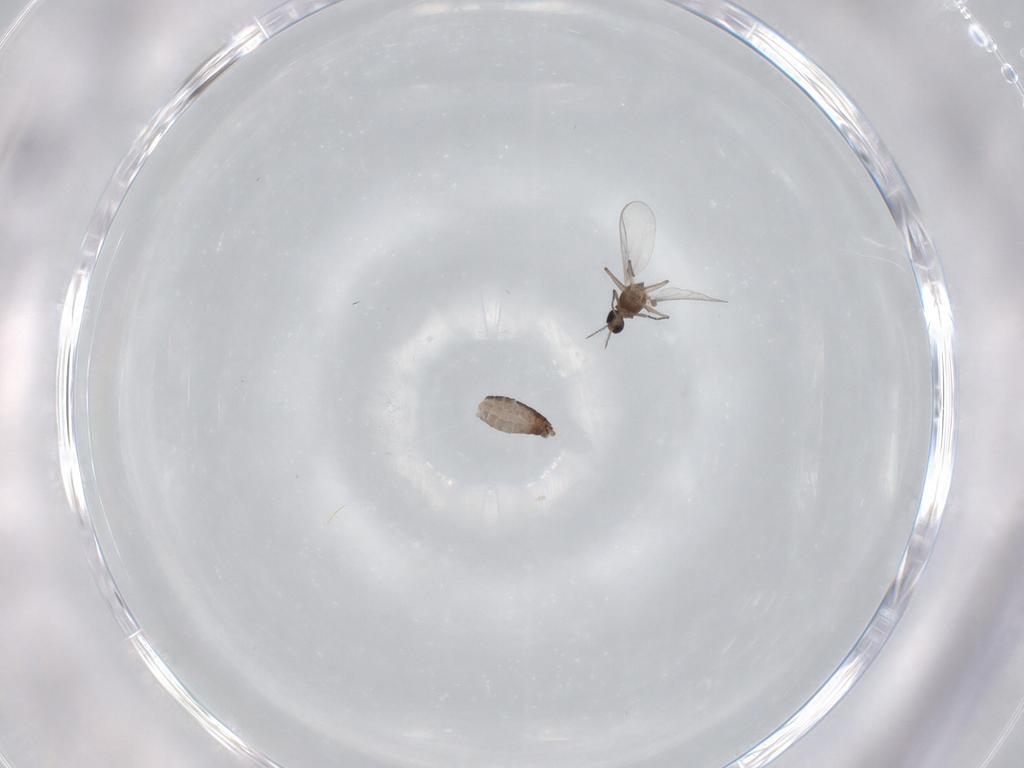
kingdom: Animalia
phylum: Arthropoda
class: Insecta
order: Diptera
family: Chironomidae
